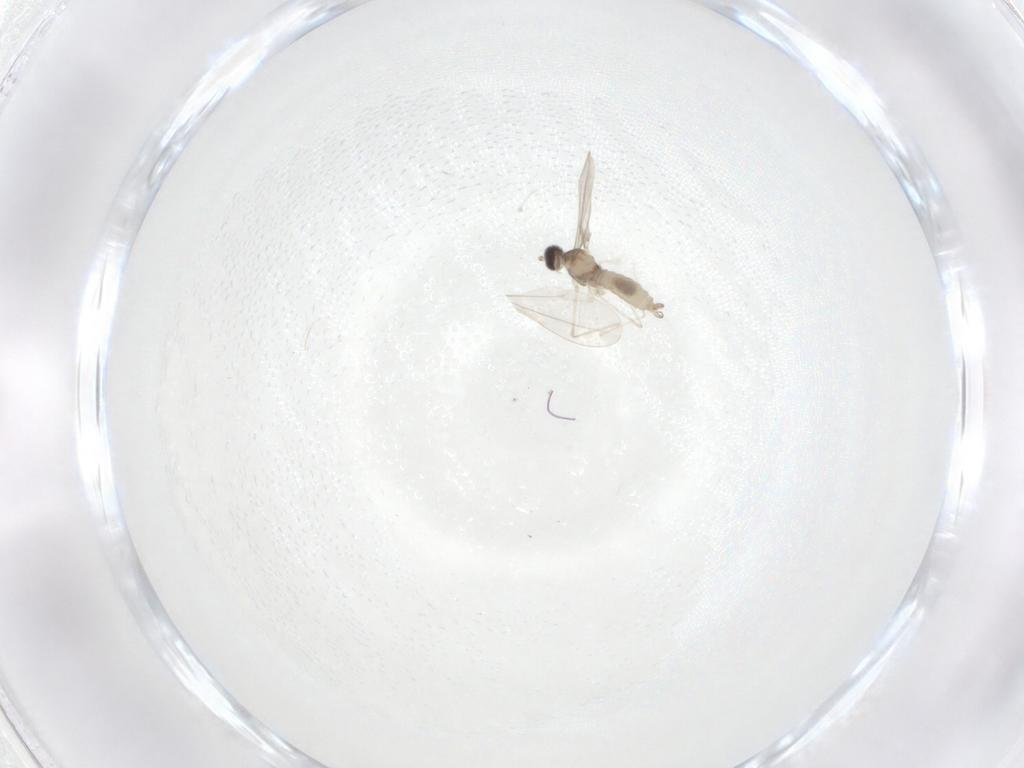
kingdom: Animalia
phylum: Arthropoda
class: Insecta
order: Diptera
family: Cecidomyiidae
